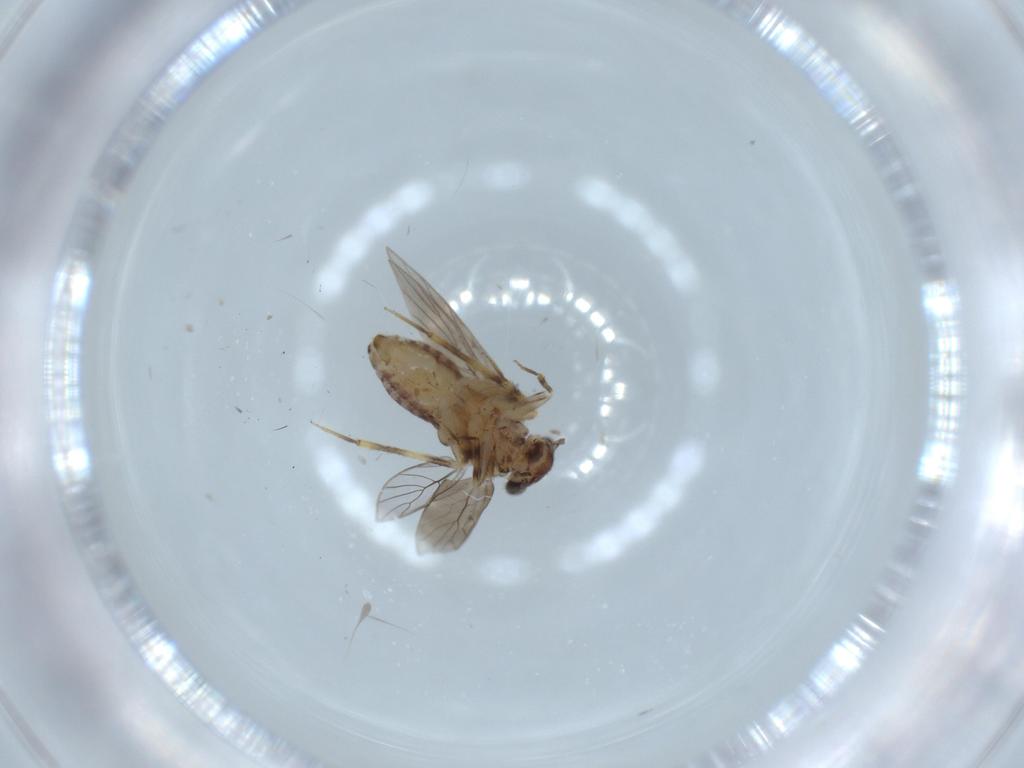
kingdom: Animalia
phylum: Arthropoda
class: Insecta
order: Psocodea
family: Lepidopsocidae
